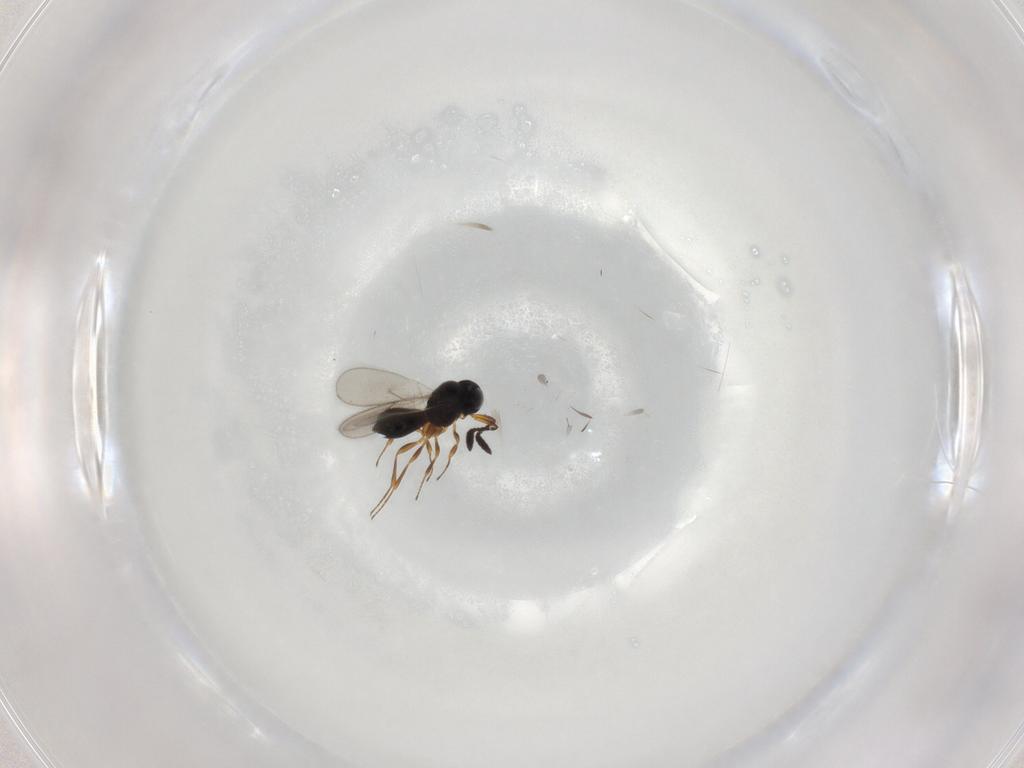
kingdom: Animalia
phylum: Arthropoda
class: Insecta
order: Hymenoptera
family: Scelionidae
